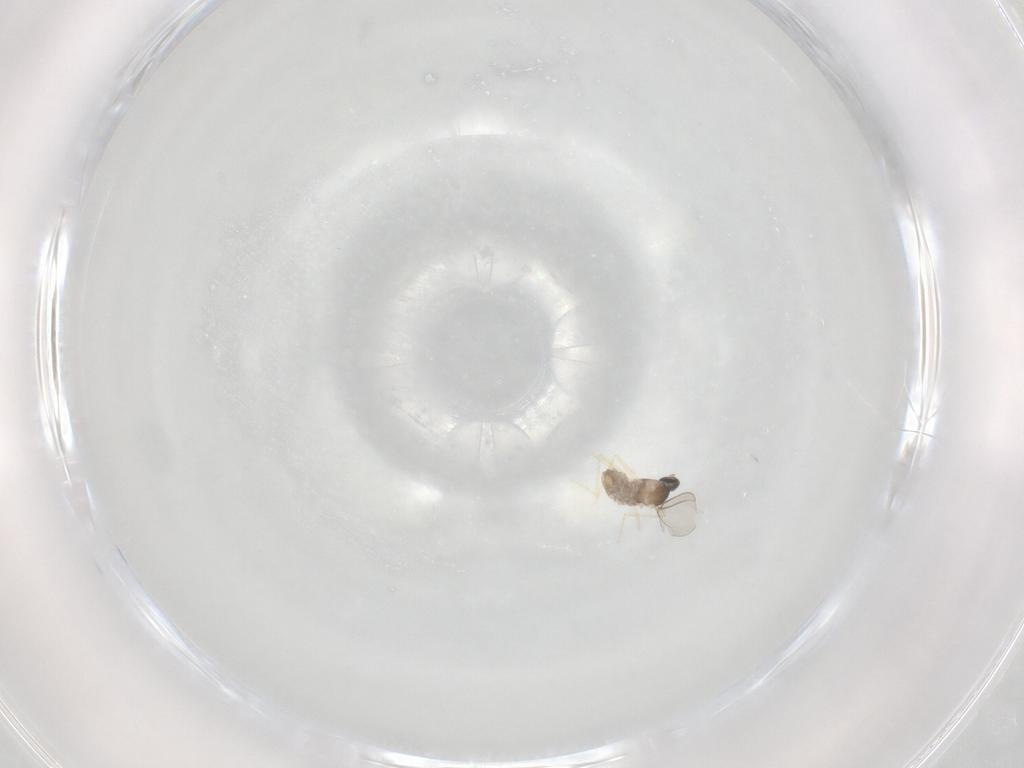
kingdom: Animalia
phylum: Arthropoda
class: Insecta
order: Diptera
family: Cecidomyiidae
